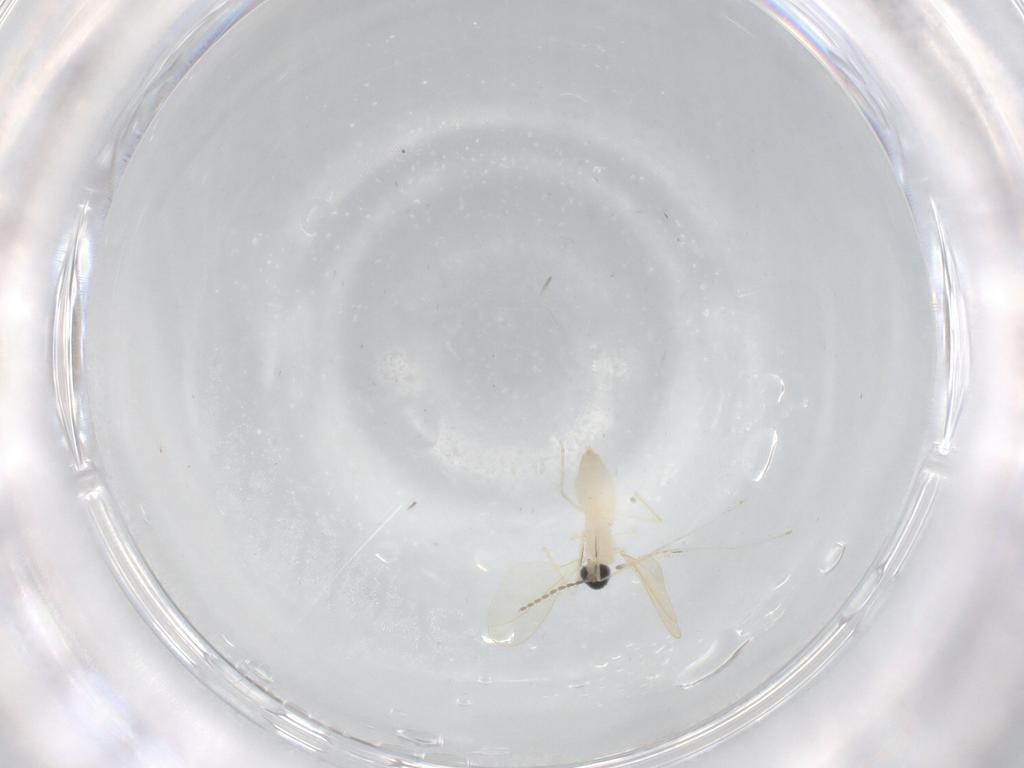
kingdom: Animalia
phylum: Arthropoda
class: Insecta
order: Diptera
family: Cecidomyiidae
